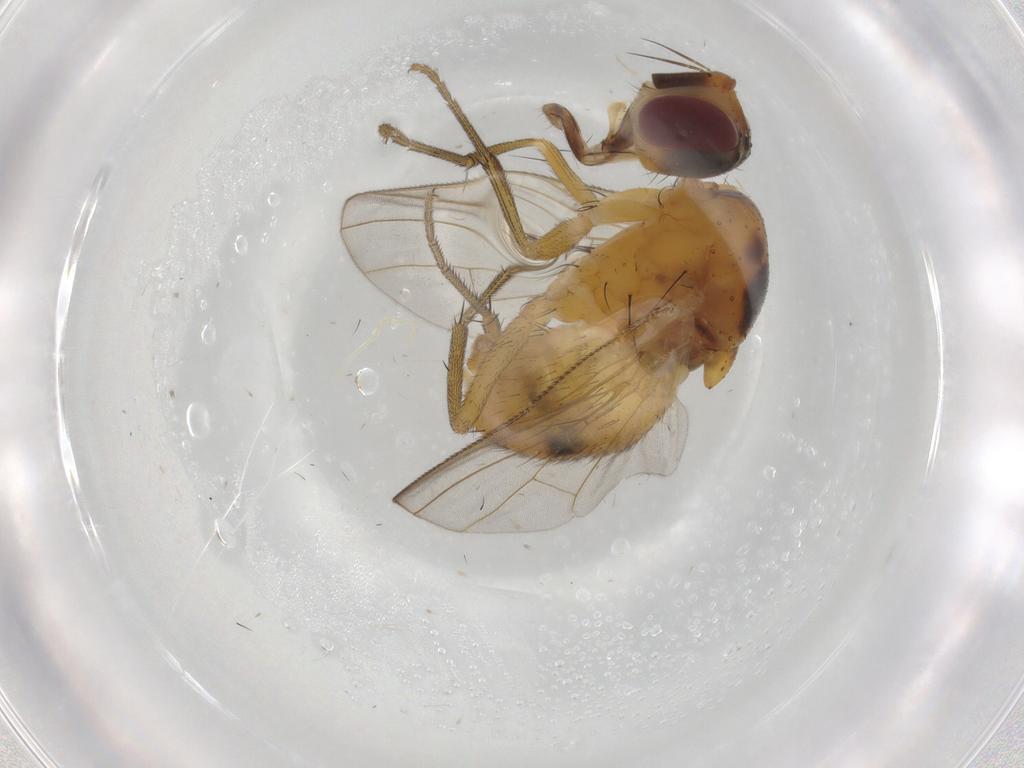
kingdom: Animalia
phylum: Arthropoda
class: Insecta
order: Diptera
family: Muscidae
